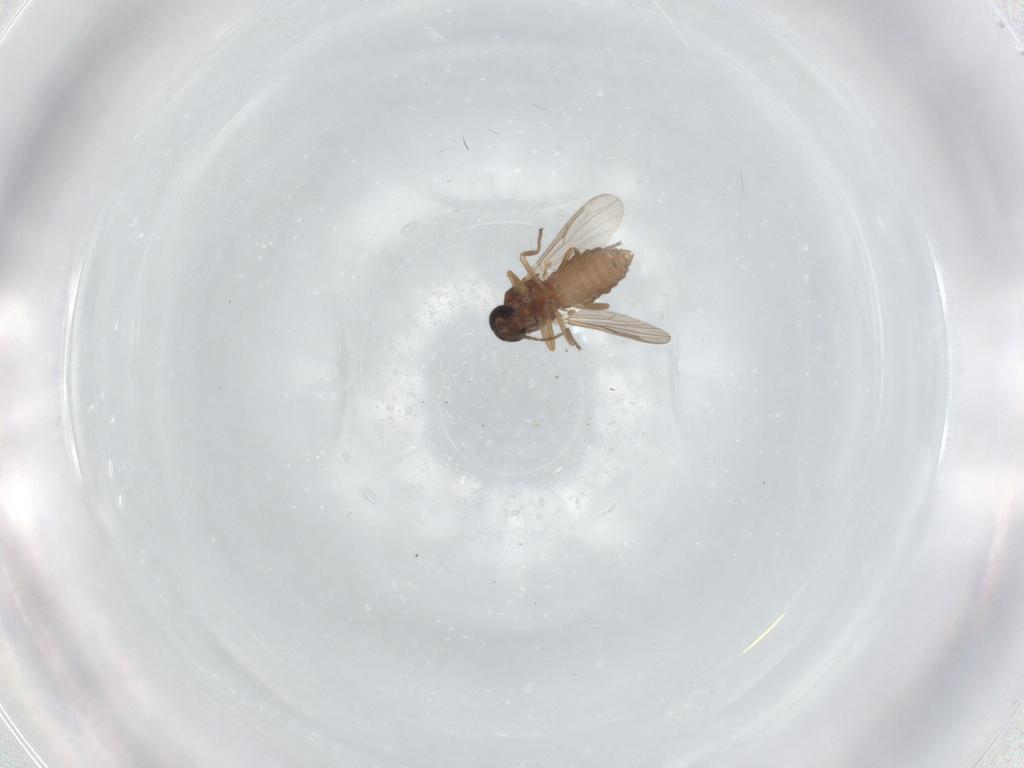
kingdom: Animalia
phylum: Arthropoda
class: Insecta
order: Diptera
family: Ceratopogonidae
